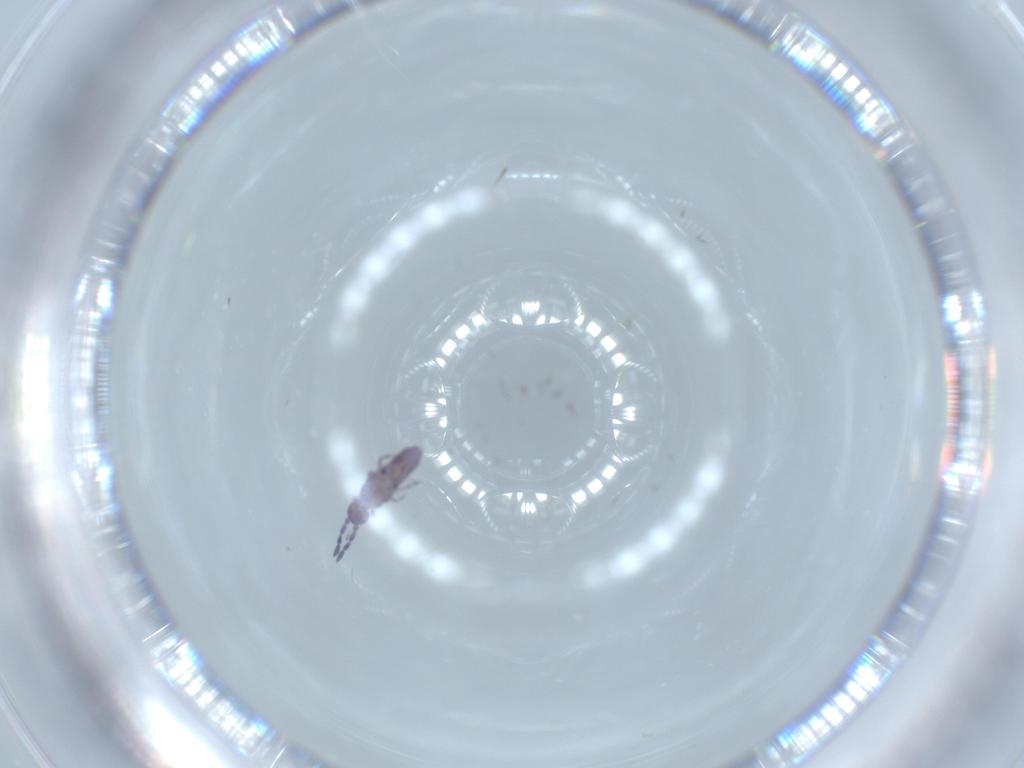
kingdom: Animalia
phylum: Arthropoda
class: Collembola
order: Entomobryomorpha
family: Entomobryidae
